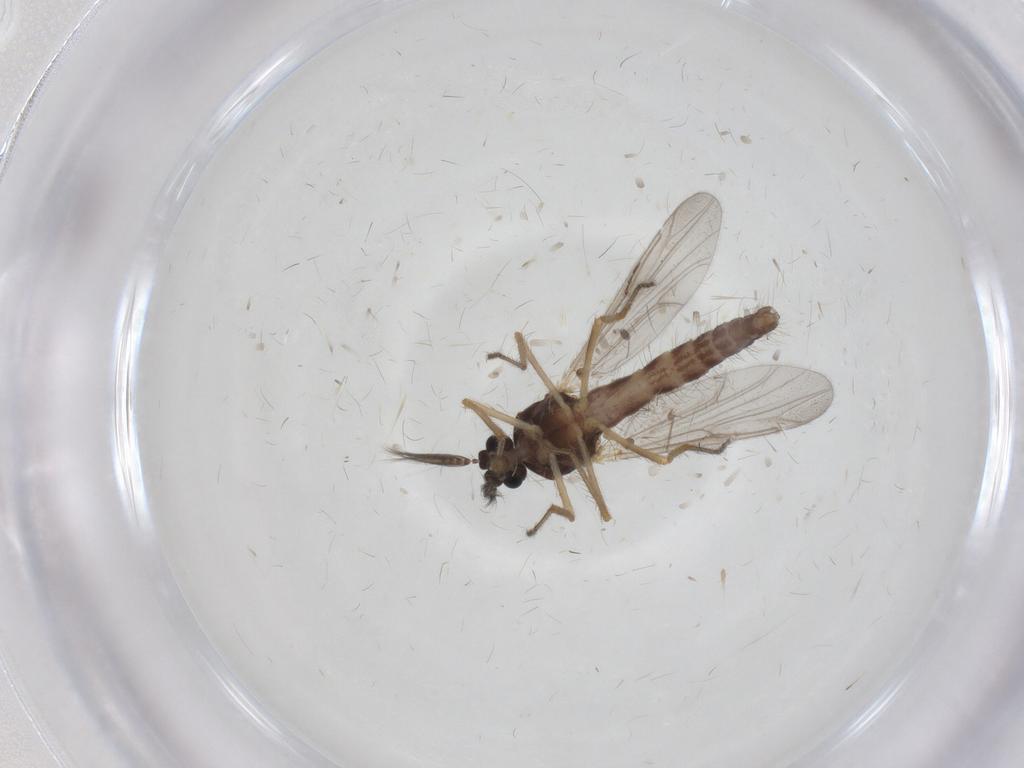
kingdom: Animalia
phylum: Arthropoda
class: Insecta
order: Diptera
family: Ceratopogonidae
